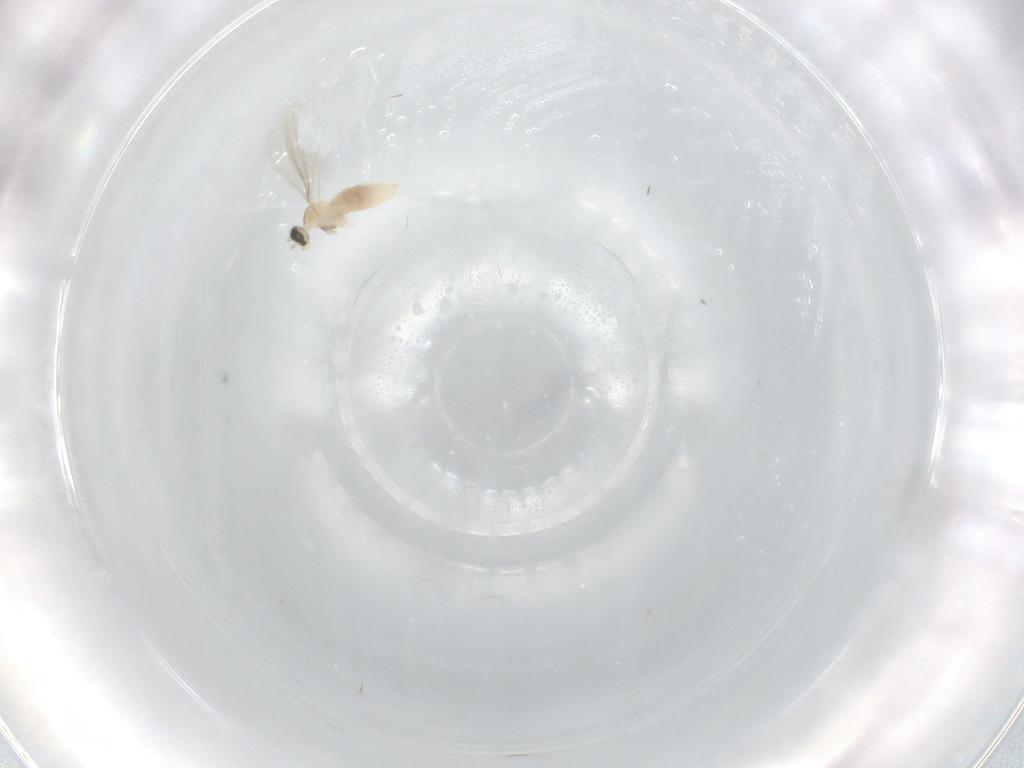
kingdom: Animalia
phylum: Arthropoda
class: Insecta
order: Diptera
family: Cecidomyiidae
